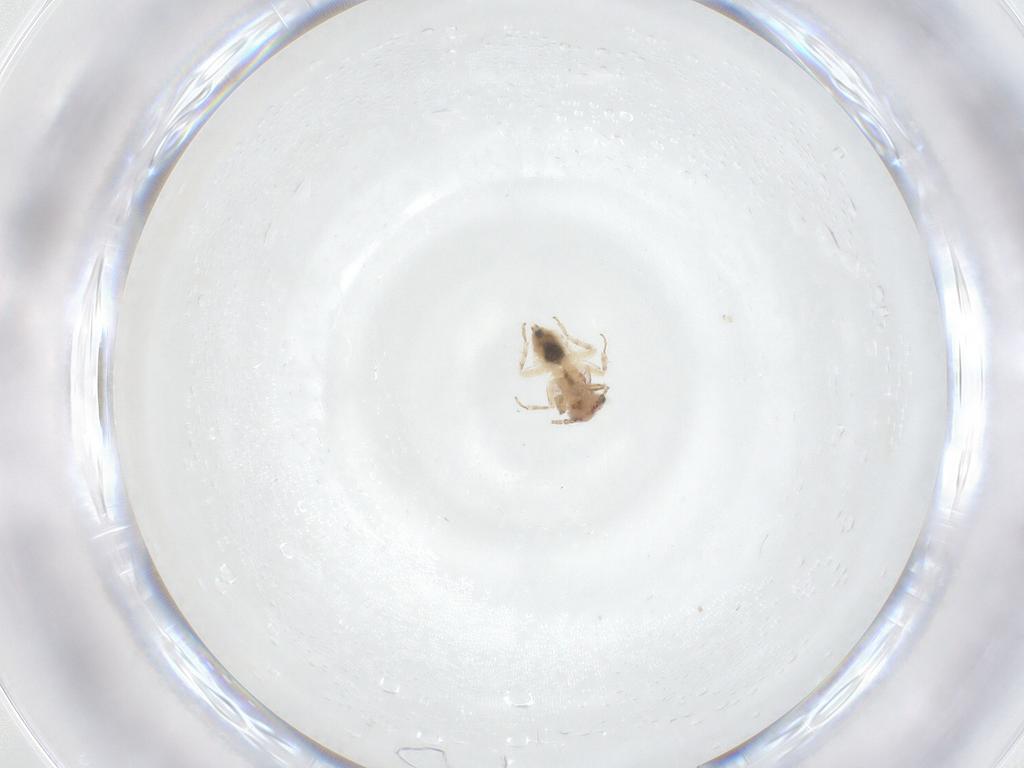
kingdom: Animalia
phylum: Arthropoda
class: Insecta
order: Psocodea
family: Lepidopsocidae
